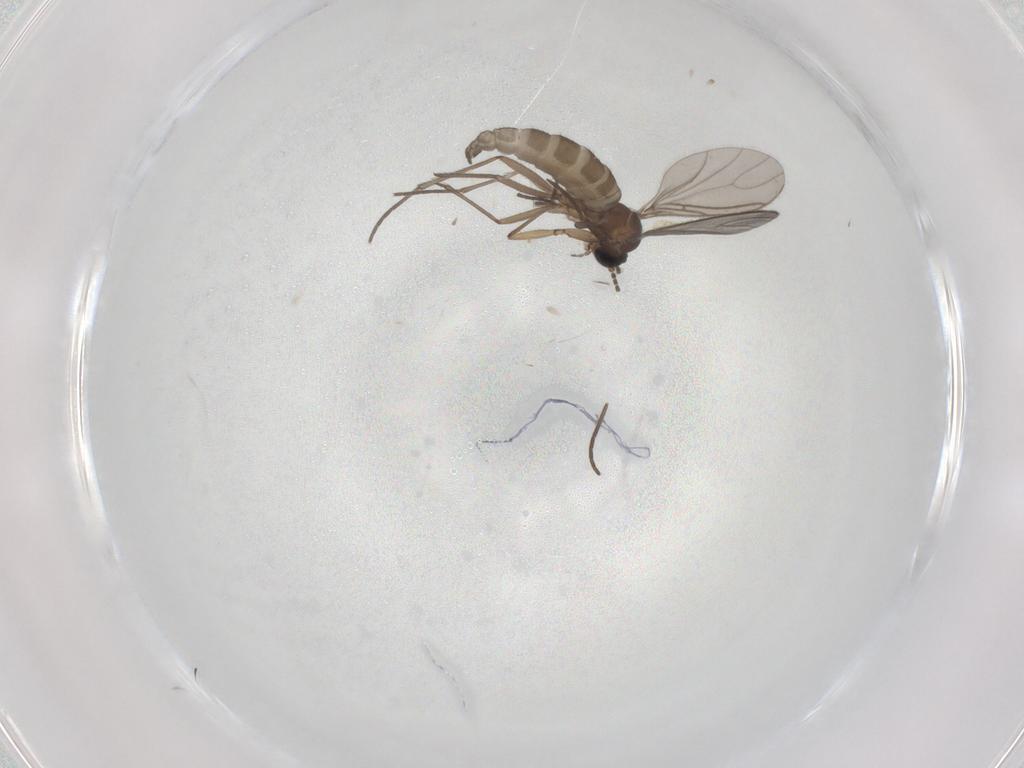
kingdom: Animalia
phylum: Arthropoda
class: Insecta
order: Diptera
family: Sciaridae
